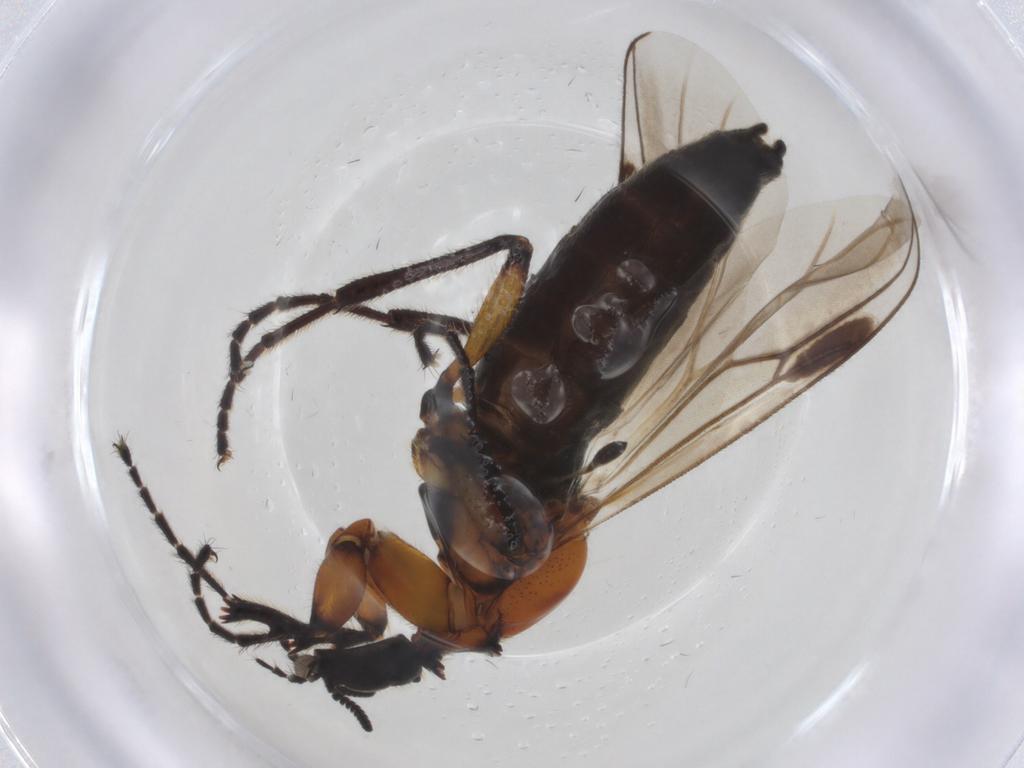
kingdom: Animalia
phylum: Arthropoda
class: Insecta
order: Diptera
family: Bibionidae
